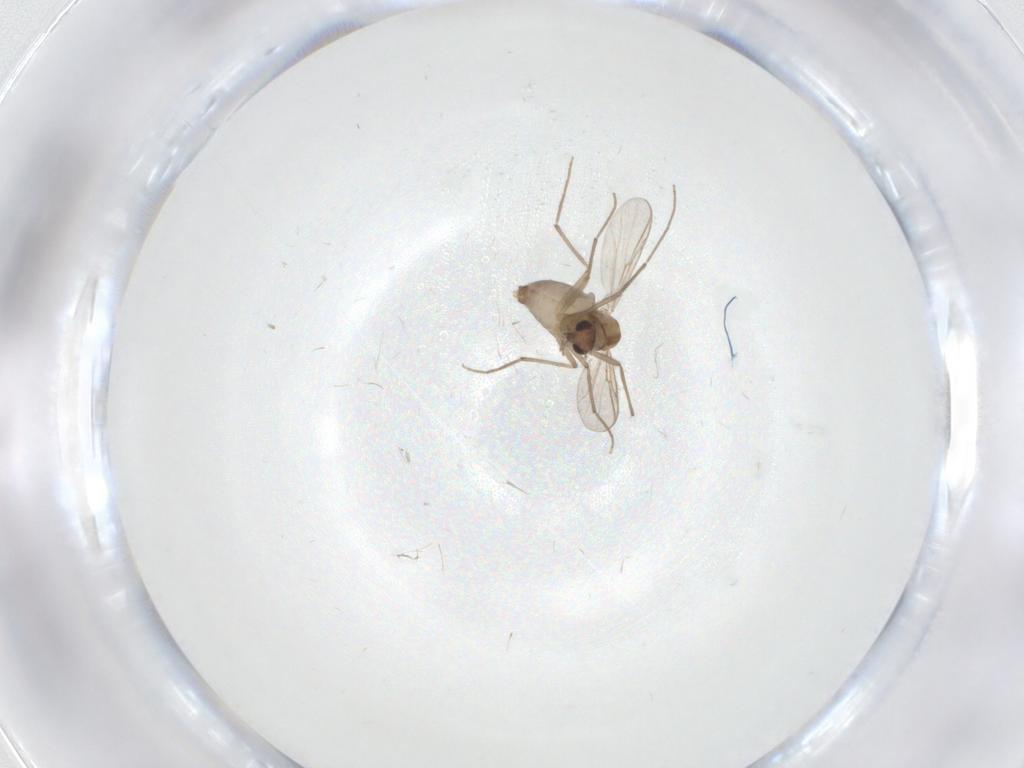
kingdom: Animalia
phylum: Arthropoda
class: Insecta
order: Diptera
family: Chironomidae
